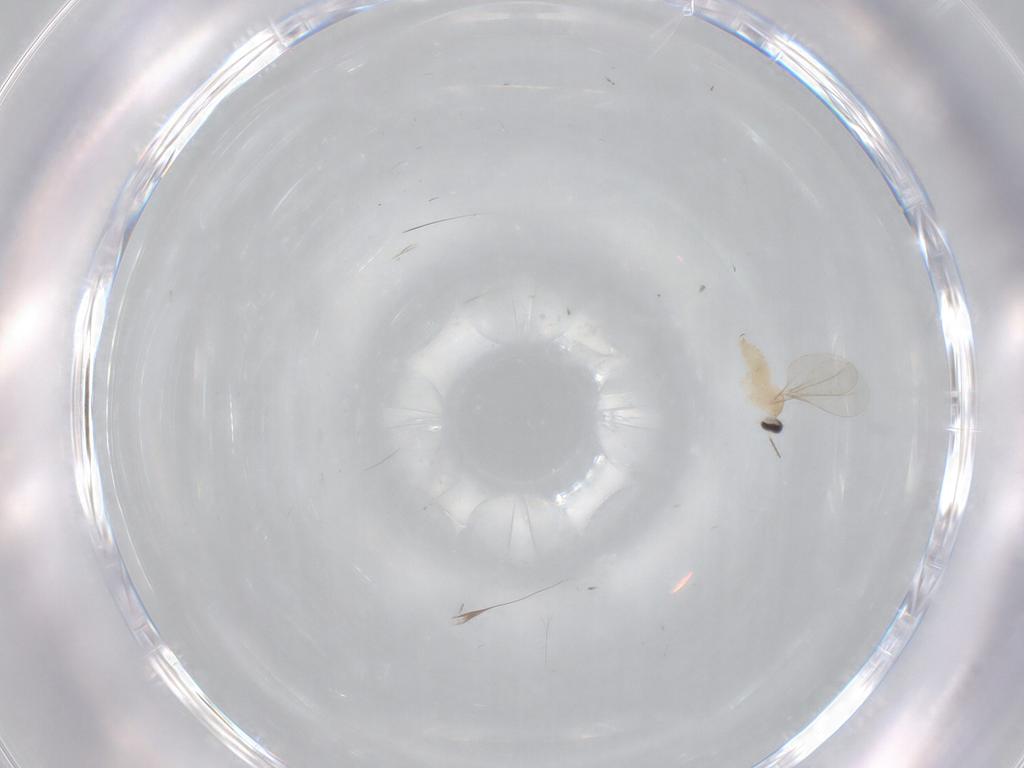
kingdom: Animalia
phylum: Arthropoda
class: Insecta
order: Diptera
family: Cecidomyiidae
